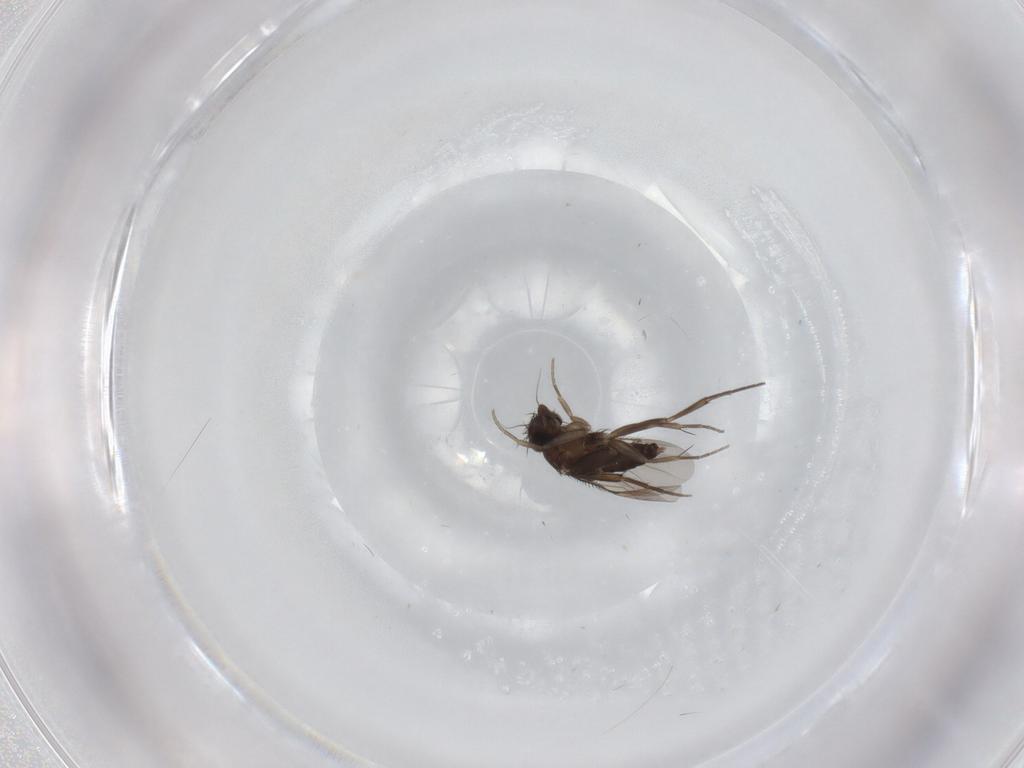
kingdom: Animalia
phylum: Arthropoda
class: Insecta
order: Diptera
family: Phoridae
